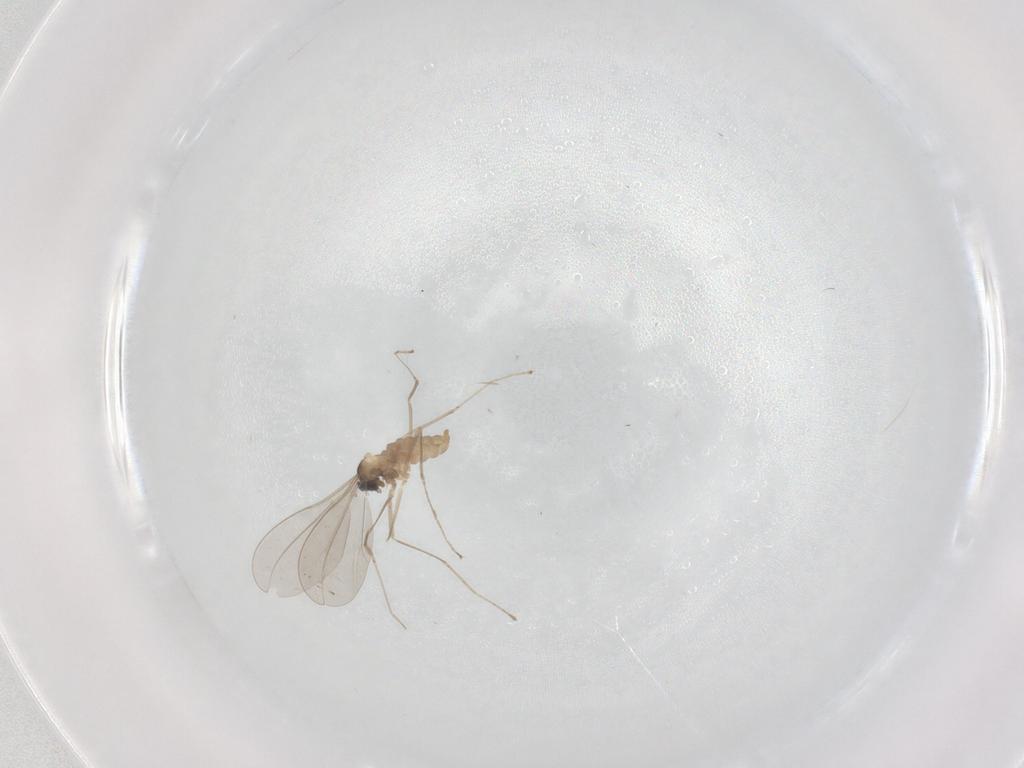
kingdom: Animalia
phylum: Arthropoda
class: Insecta
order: Diptera
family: Cecidomyiidae
